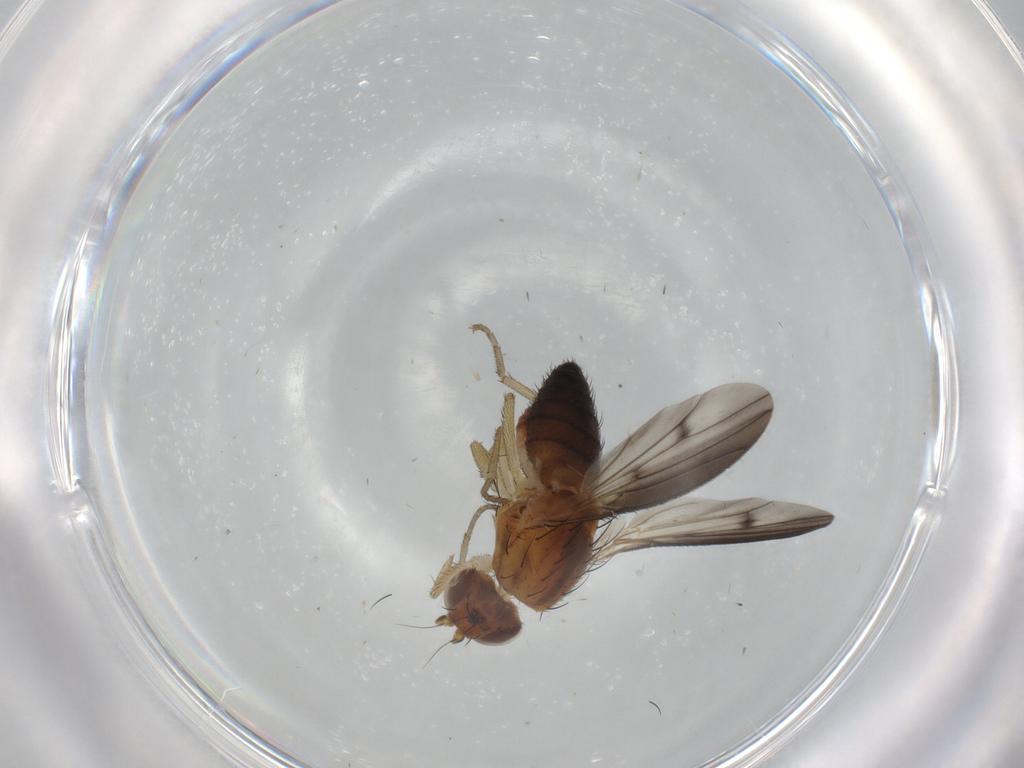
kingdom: Animalia
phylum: Arthropoda
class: Insecta
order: Diptera
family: Heleomyzidae
